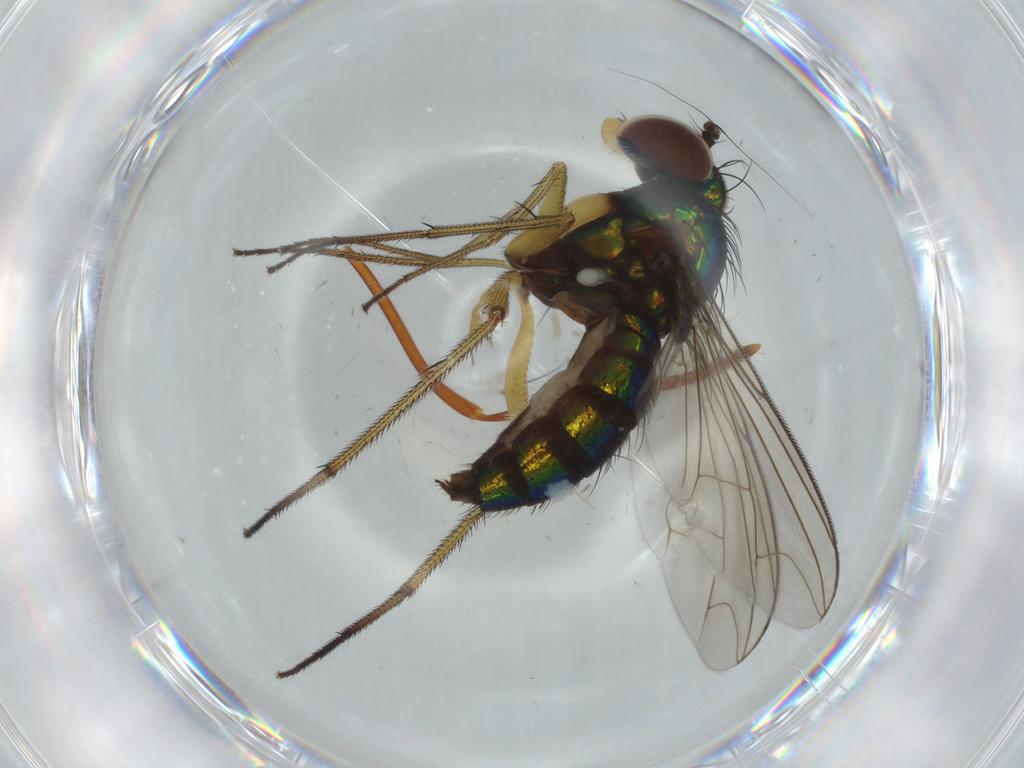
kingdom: Animalia
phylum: Arthropoda
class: Insecta
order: Diptera
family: Dolichopodidae
